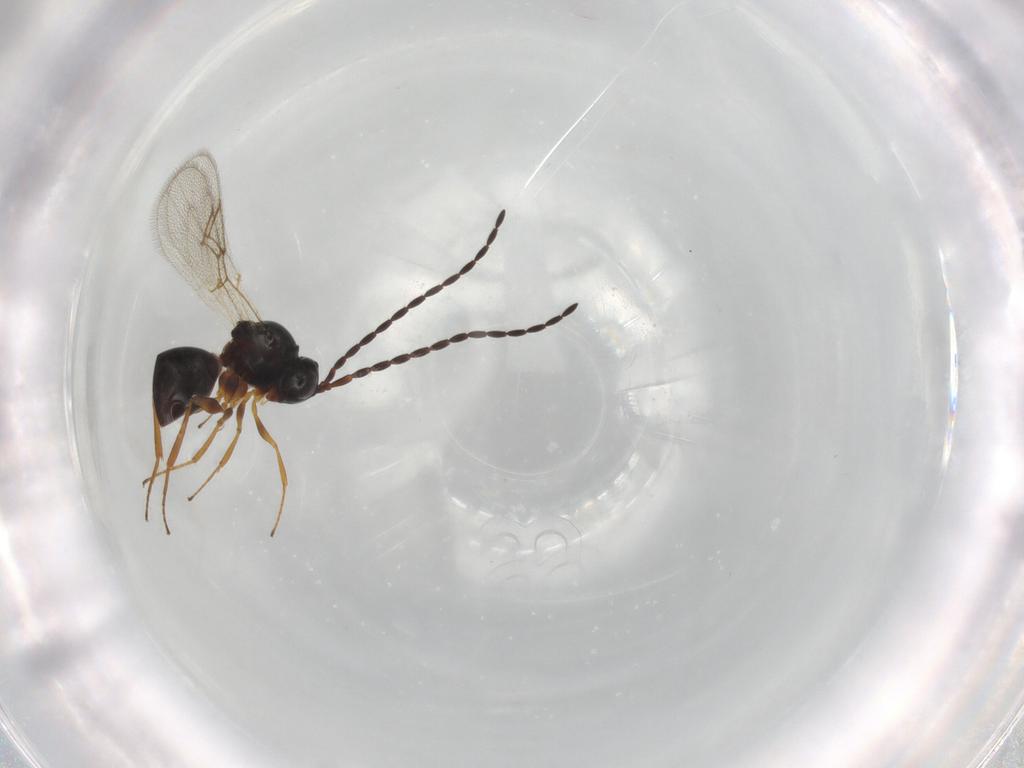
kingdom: Animalia
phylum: Arthropoda
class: Insecta
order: Hymenoptera
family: Figitidae
